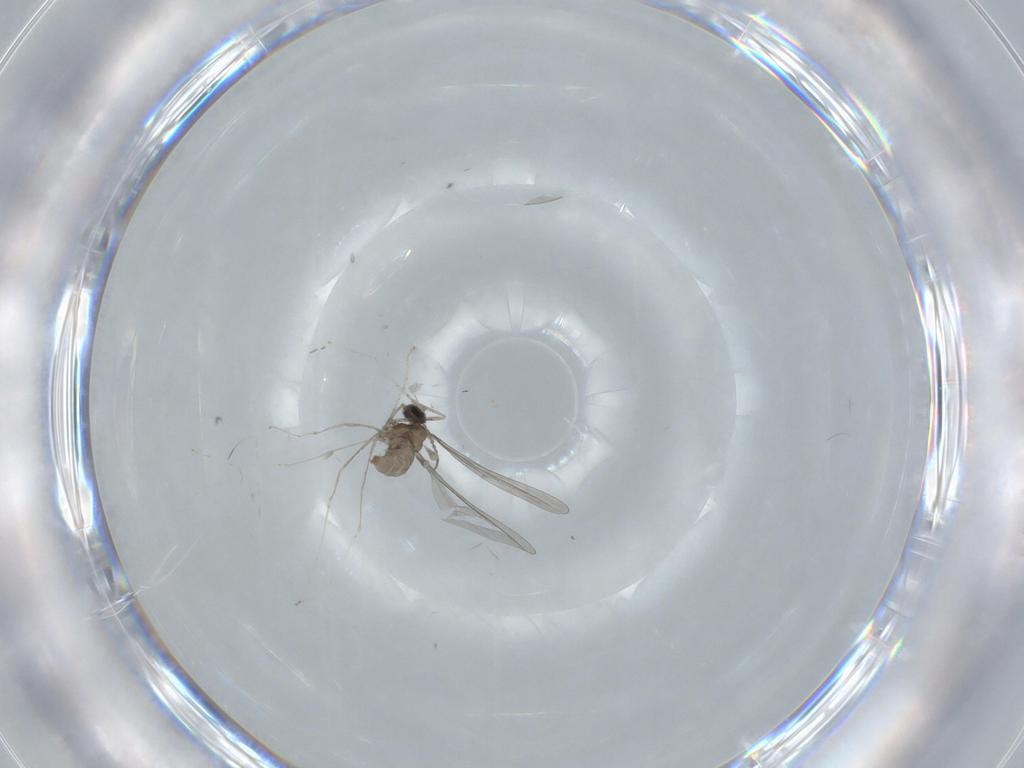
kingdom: Animalia
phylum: Arthropoda
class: Insecta
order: Diptera
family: Cecidomyiidae
